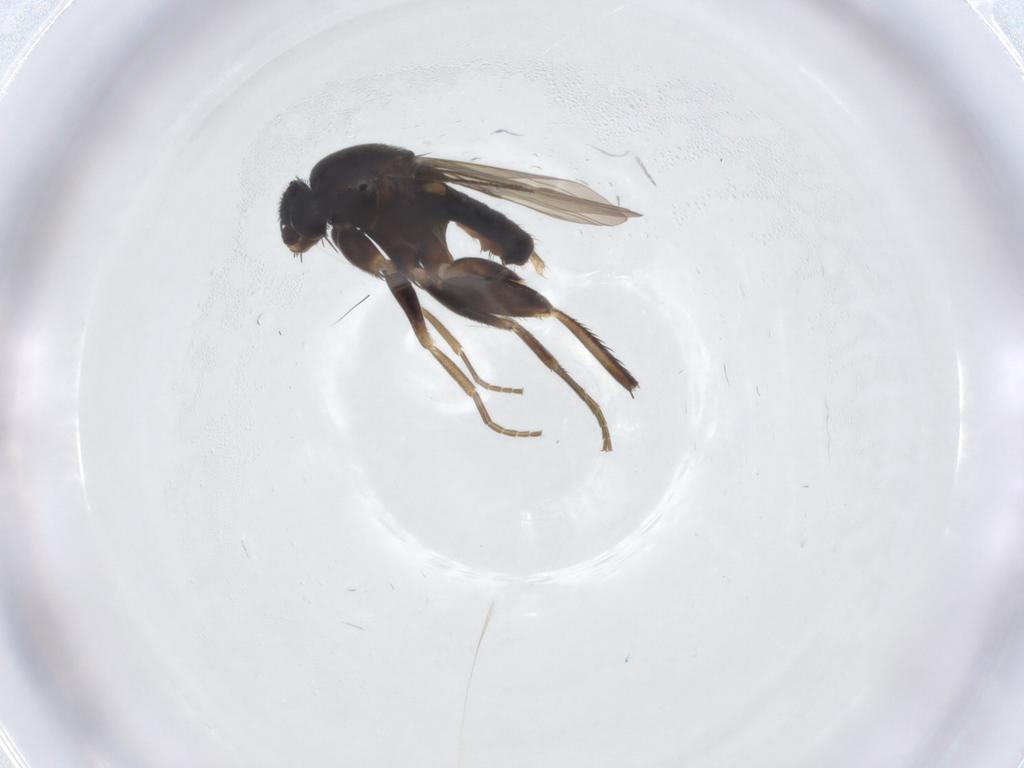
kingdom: Animalia
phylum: Arthropoda
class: Insecta
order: Diptera
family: Phoridae
